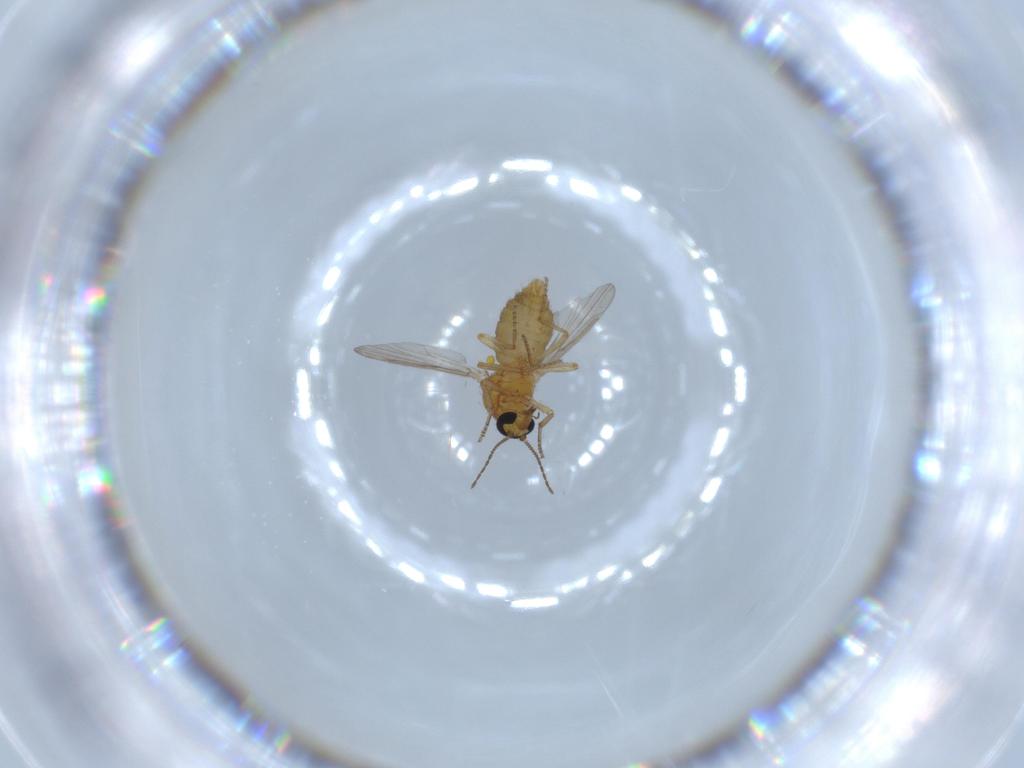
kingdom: Animalia
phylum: Arthropoda
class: Insecta
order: Diptera
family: Ceratopogonidae
